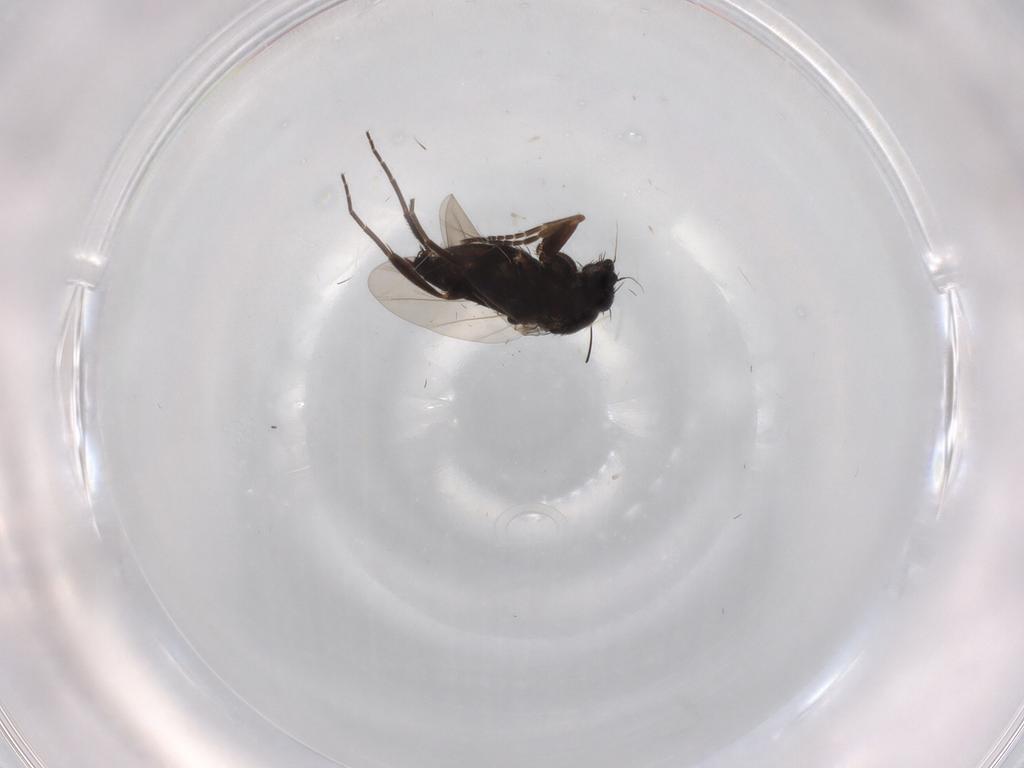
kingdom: Animalia
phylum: Arthropoda
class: Insecta
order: Diptera
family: Phoridae
